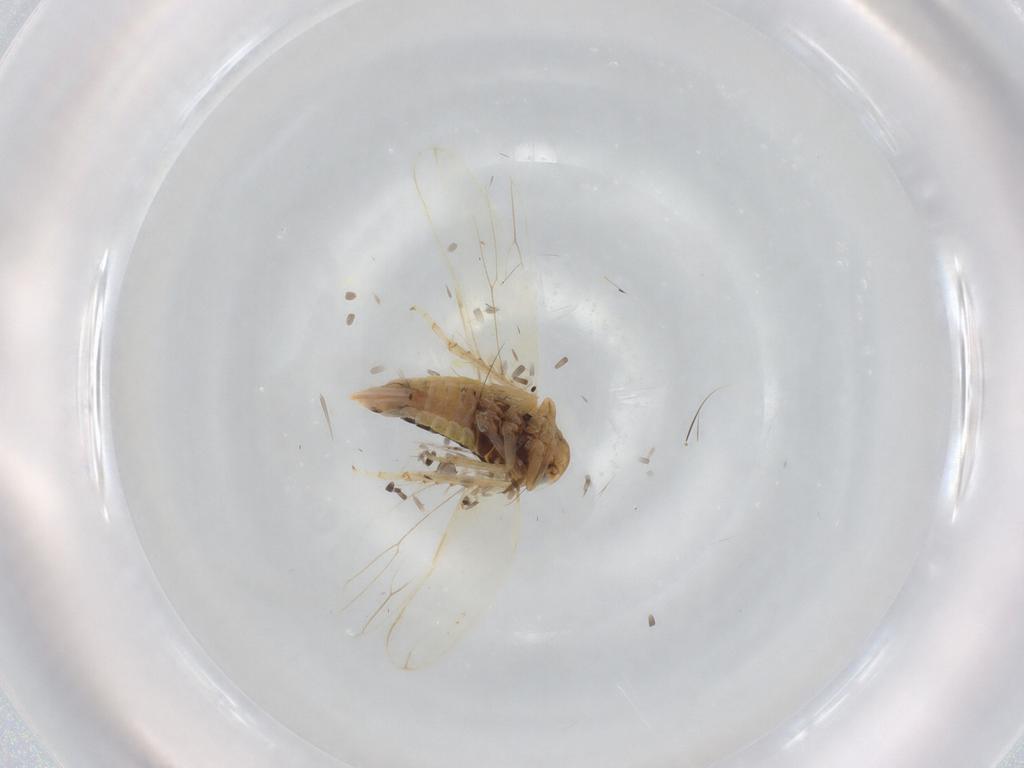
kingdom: Animalia
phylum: Arthropoda
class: Insecta
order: Hemiptera
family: Cicadellidae
